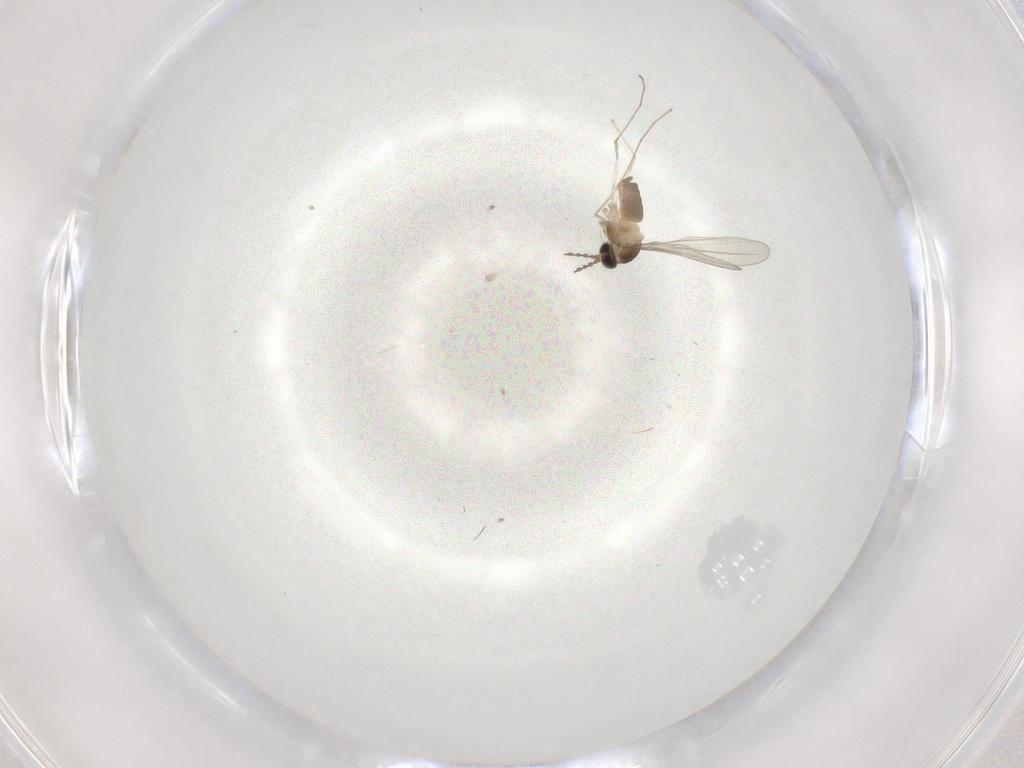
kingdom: Animalia
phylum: Arthropoda
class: Insecta
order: Diptera
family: Cecidomyiidae
